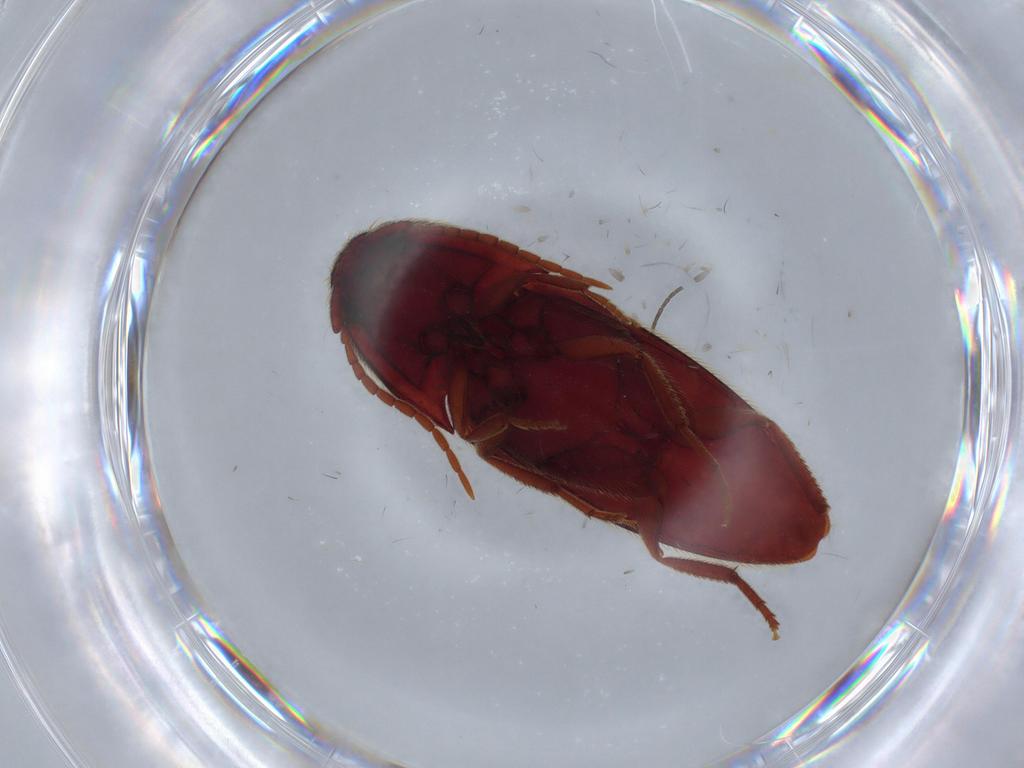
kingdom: Animalia
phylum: Arthropoda
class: Insecta
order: Coleoptera
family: Eucnemidae
